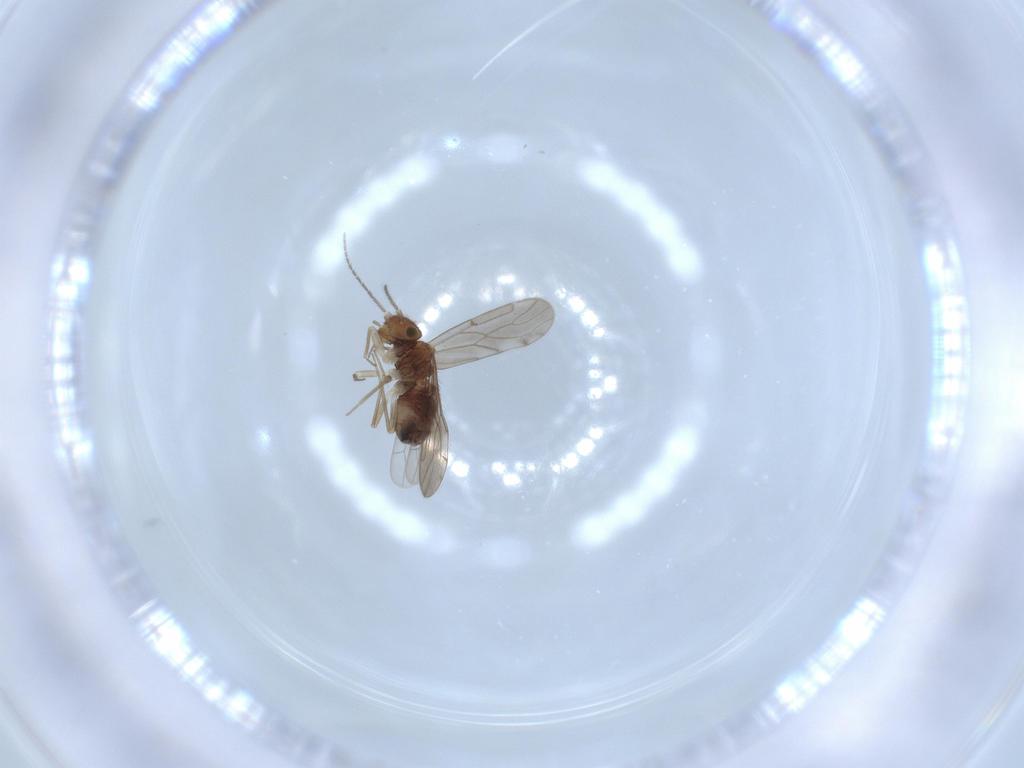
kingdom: Animalia
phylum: Arthropoda
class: Insecta
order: Psocodea
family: Ectopsocidae
